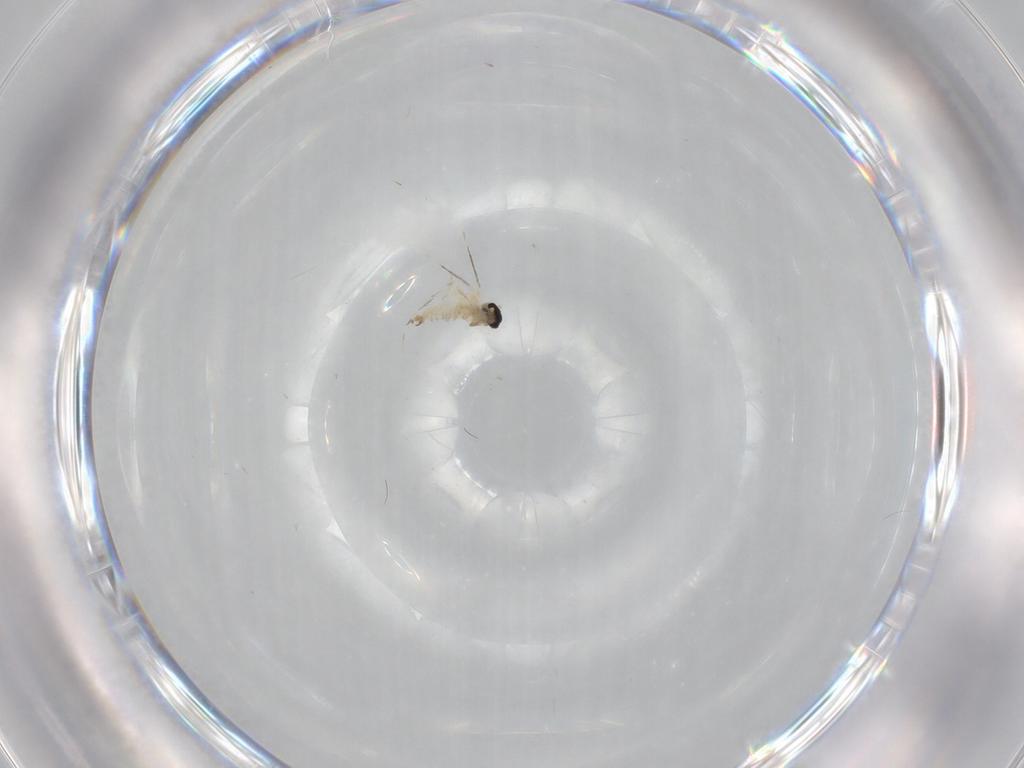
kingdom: Animalia
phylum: Arthropoda
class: Insecta
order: Diptera
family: Cecidomyiidae
